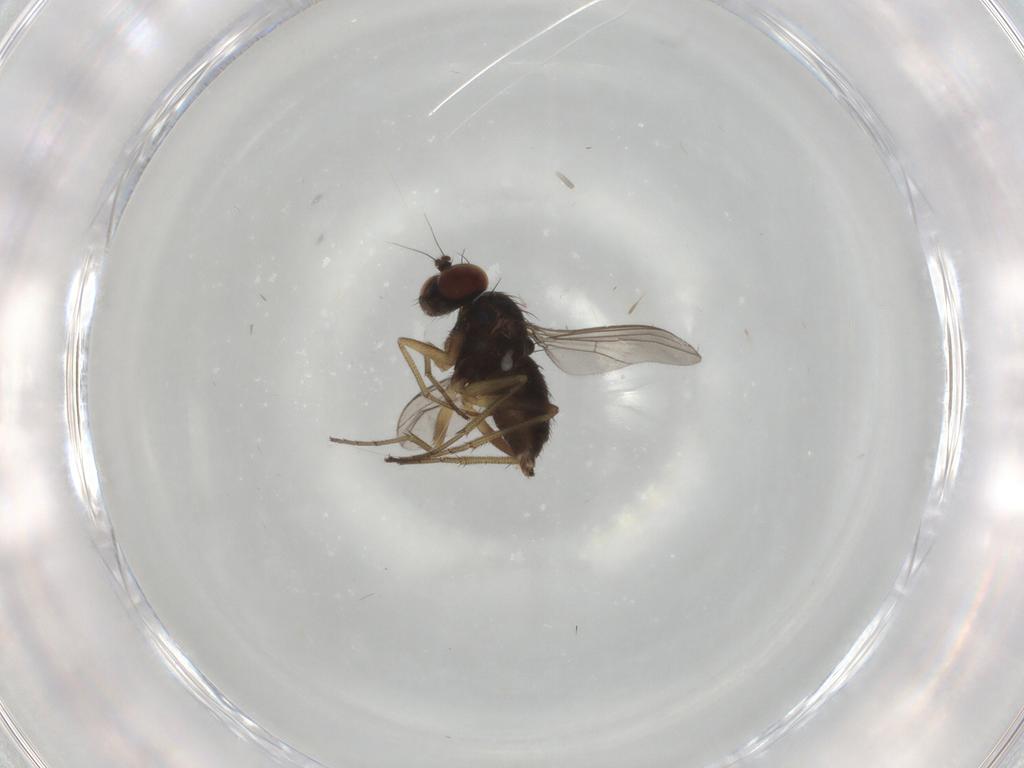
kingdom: Animalia
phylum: Arthropoda
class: Insecta
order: Diptera
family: Dolichopodidae
